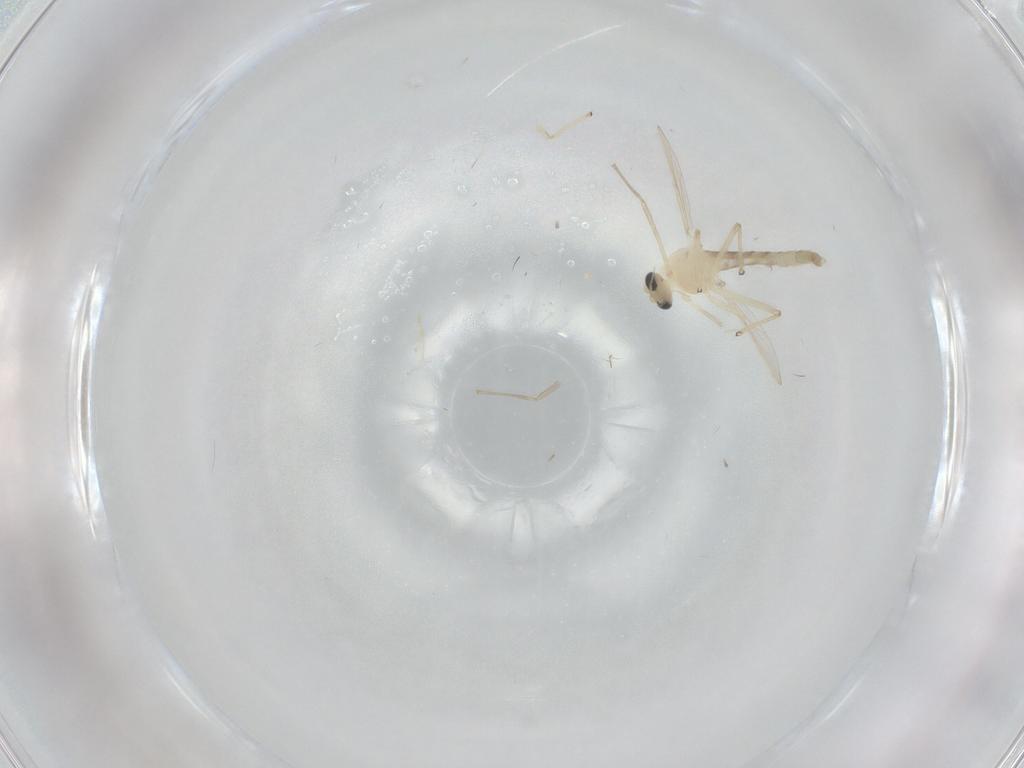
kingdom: Animalia
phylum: Arthropoda
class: Insecta
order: Diptera
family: Chironomidae
